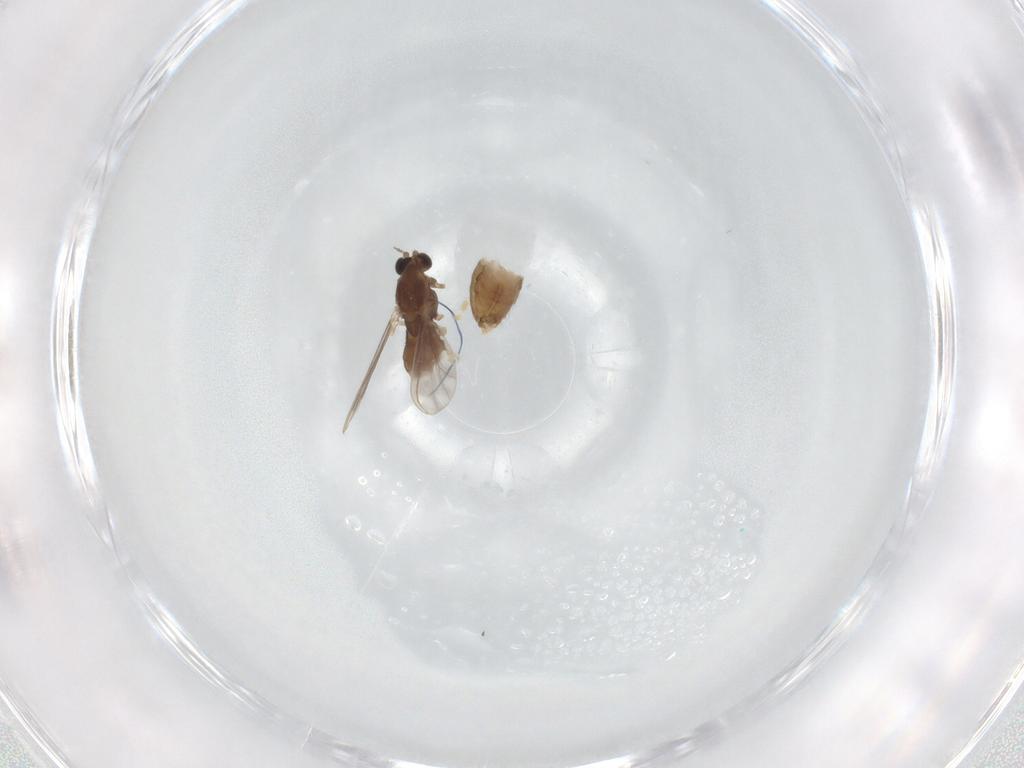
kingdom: Animalia
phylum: Arthropoda
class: Insecta
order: Diptera
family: Chironomidae
